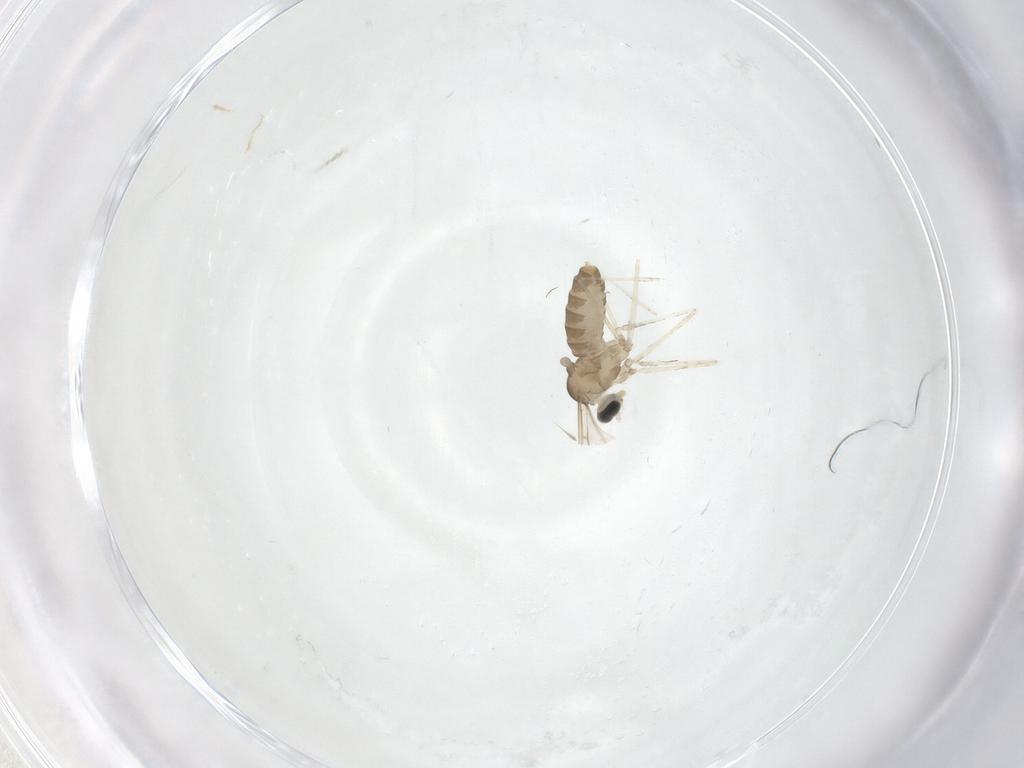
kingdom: Animalia
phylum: Arthropoda
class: Insecta
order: Diptera
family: Cecidomyiidae
